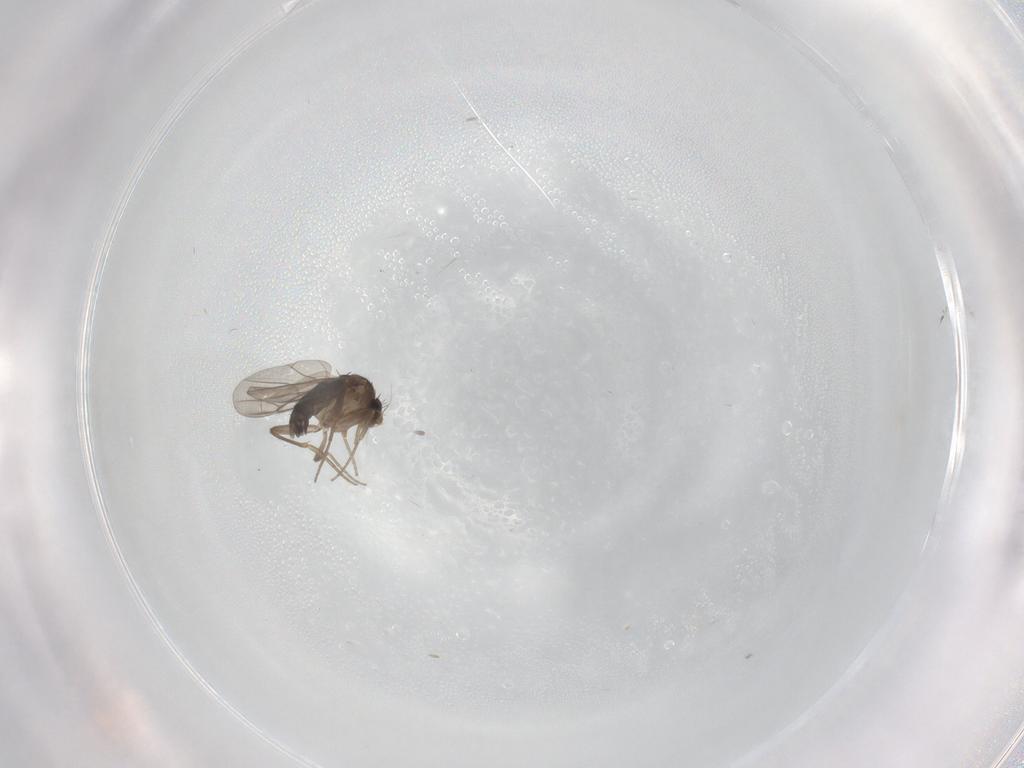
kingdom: Animalia
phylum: Arthropoda
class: Insecta
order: Diptera
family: Phoridae
